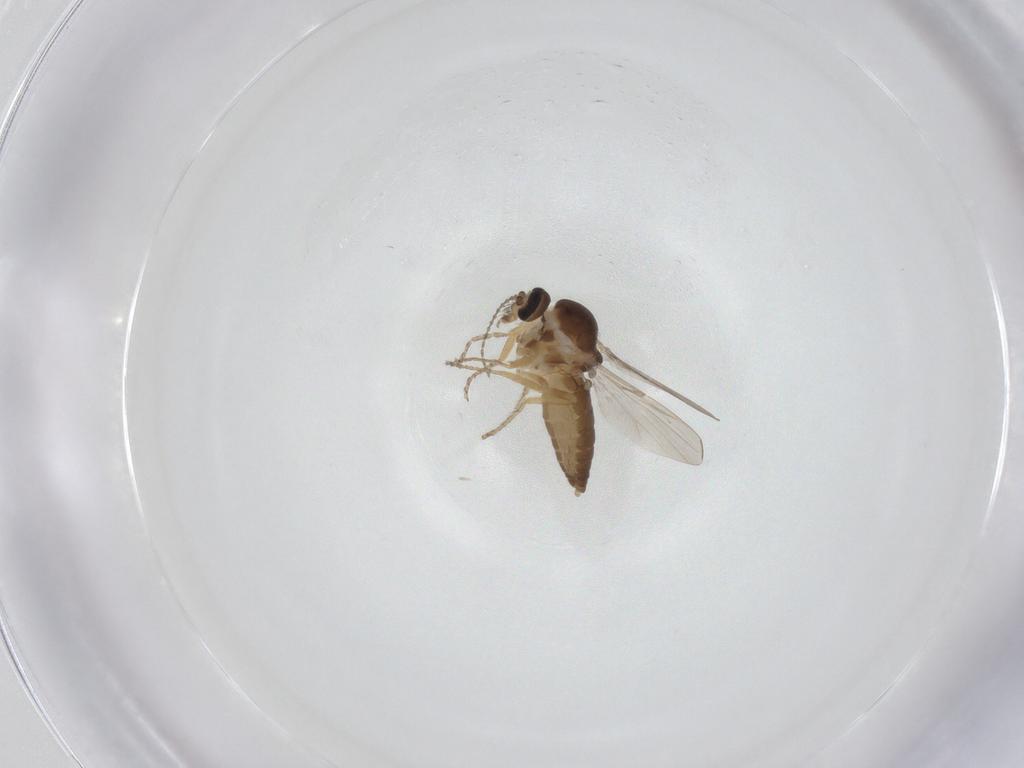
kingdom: Animalia
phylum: Arthropoda
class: Insecta
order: Diptera
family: Ceratopogonidae
